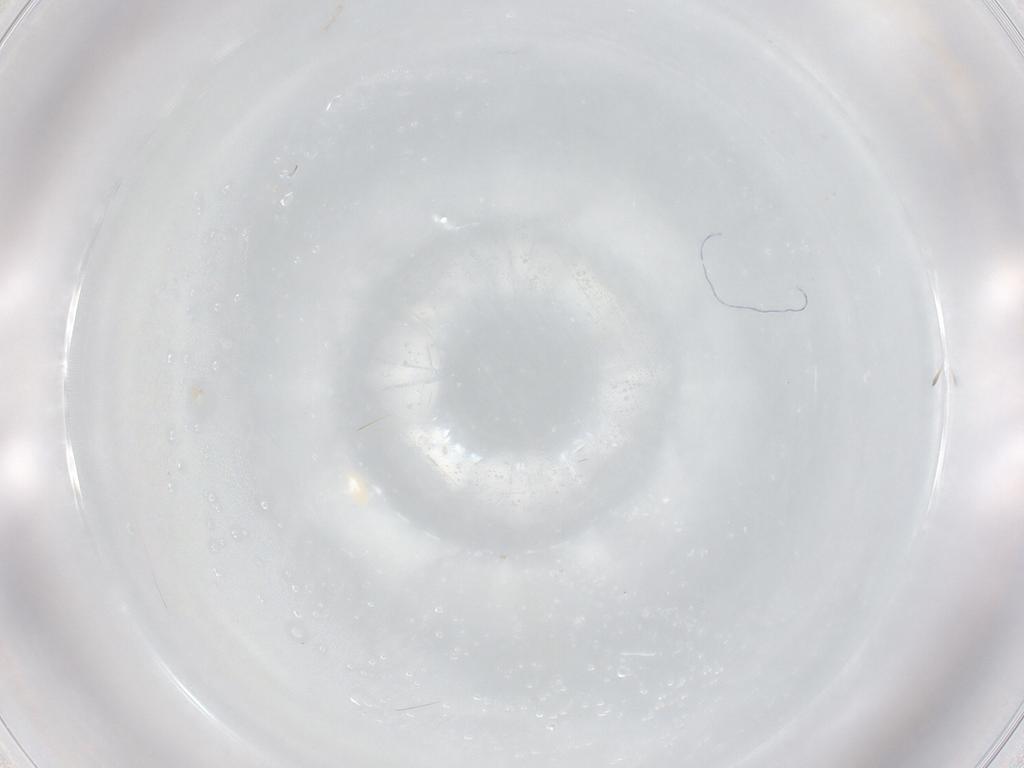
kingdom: Animalia
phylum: Arthropoda
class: Arachnida
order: Trombidiformes
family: Eupodidae
